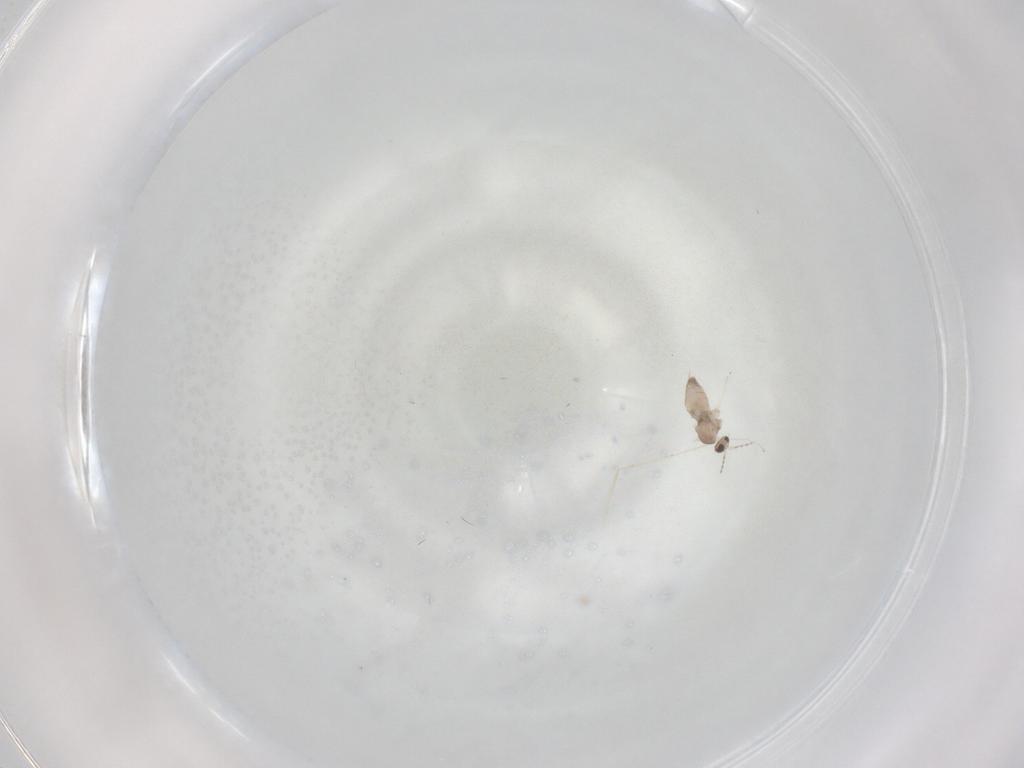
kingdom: Animalia
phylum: Arthropoda
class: Insecta
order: Diptera
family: Cecidomyiidae
